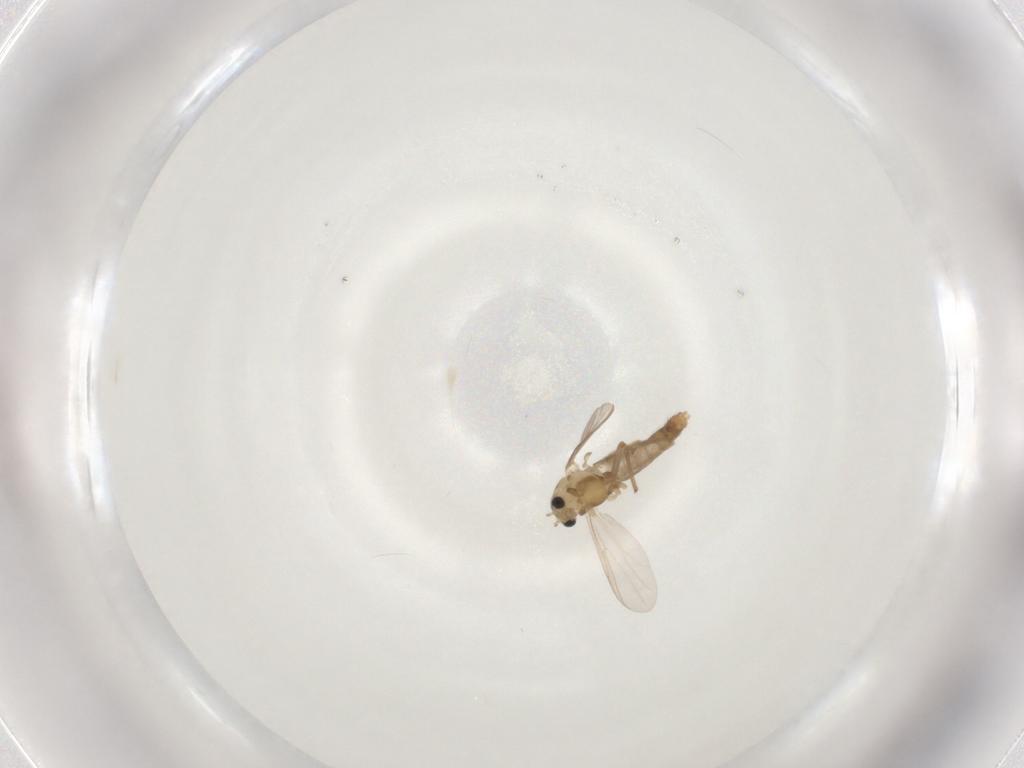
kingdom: Animalia
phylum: Arthropoda
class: Insecta
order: Diptera
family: Chironomidae
